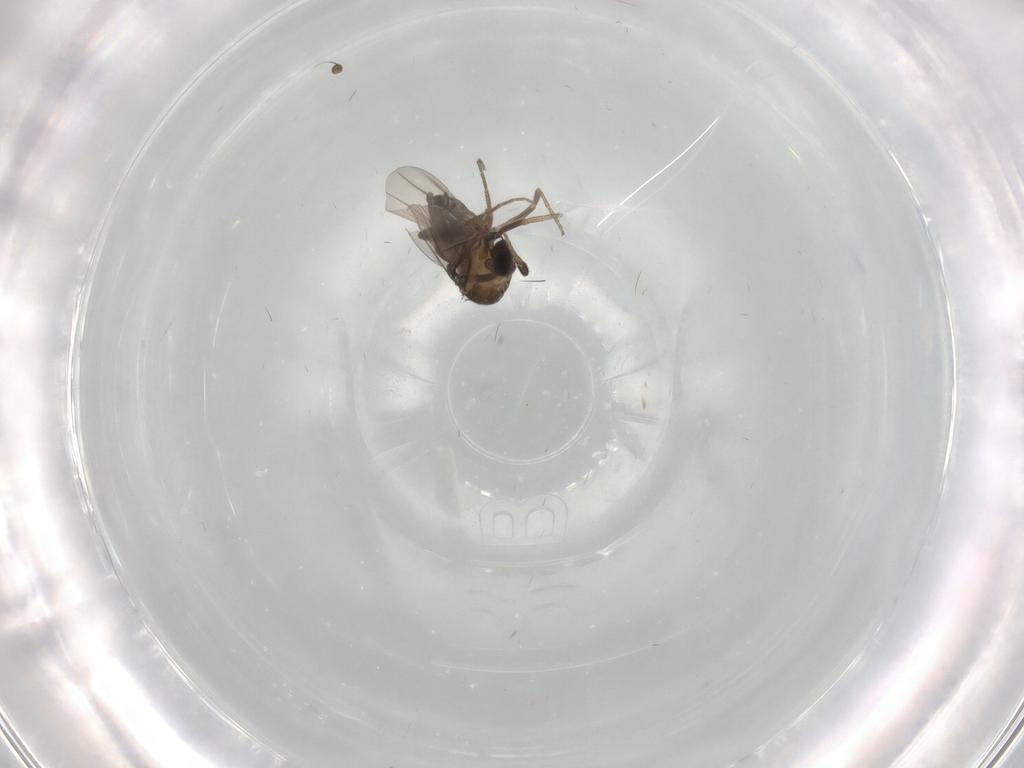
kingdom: Animalia
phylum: Arthropoda
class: Insecta
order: Diptera
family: Phoridae
